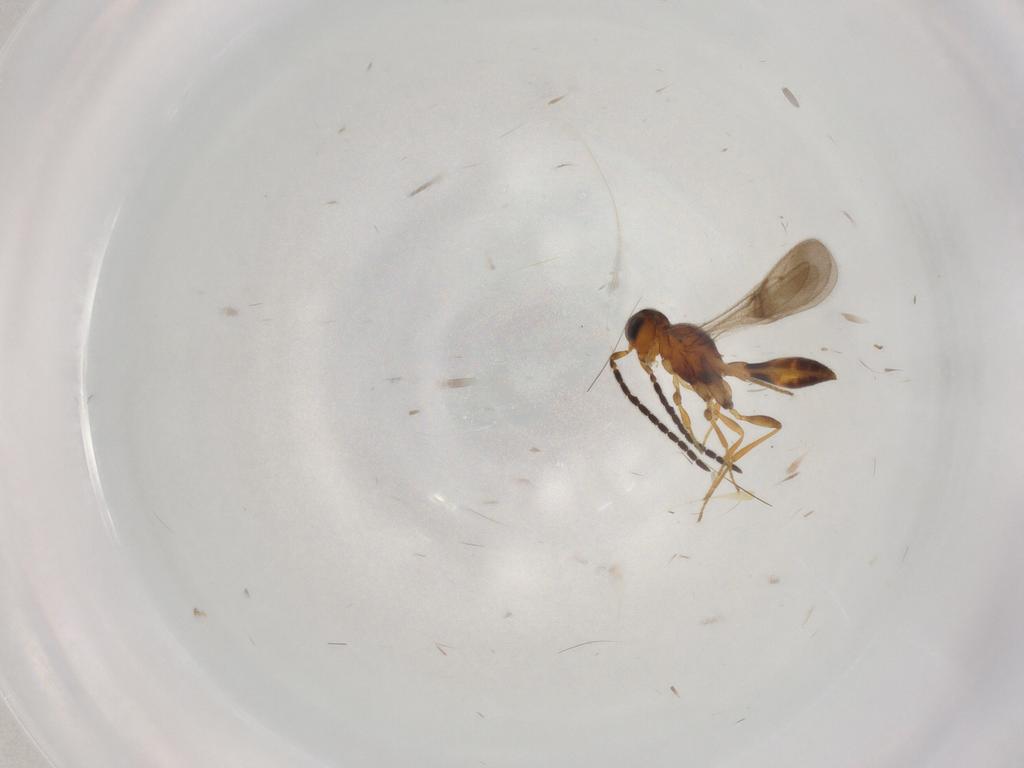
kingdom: Animalia
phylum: Arthropoda
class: Insecta
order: Hymenoptera
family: Scelionidae
